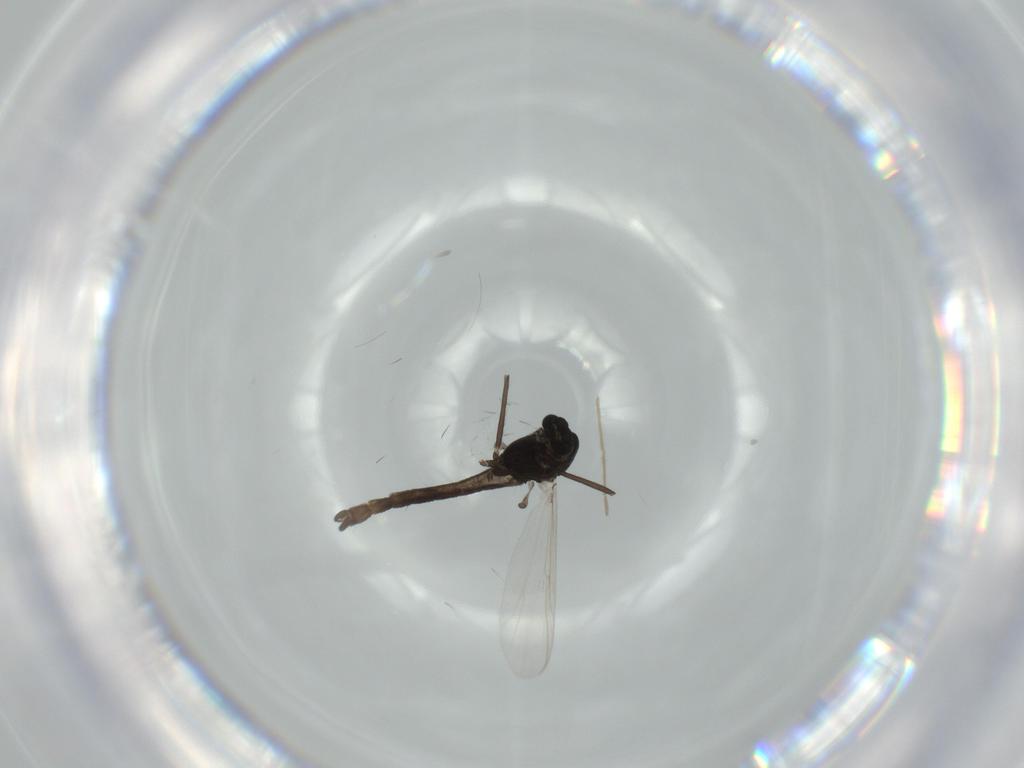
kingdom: Animalia
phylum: Arthropoda
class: Insecta
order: Diptera
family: Chironomidae
